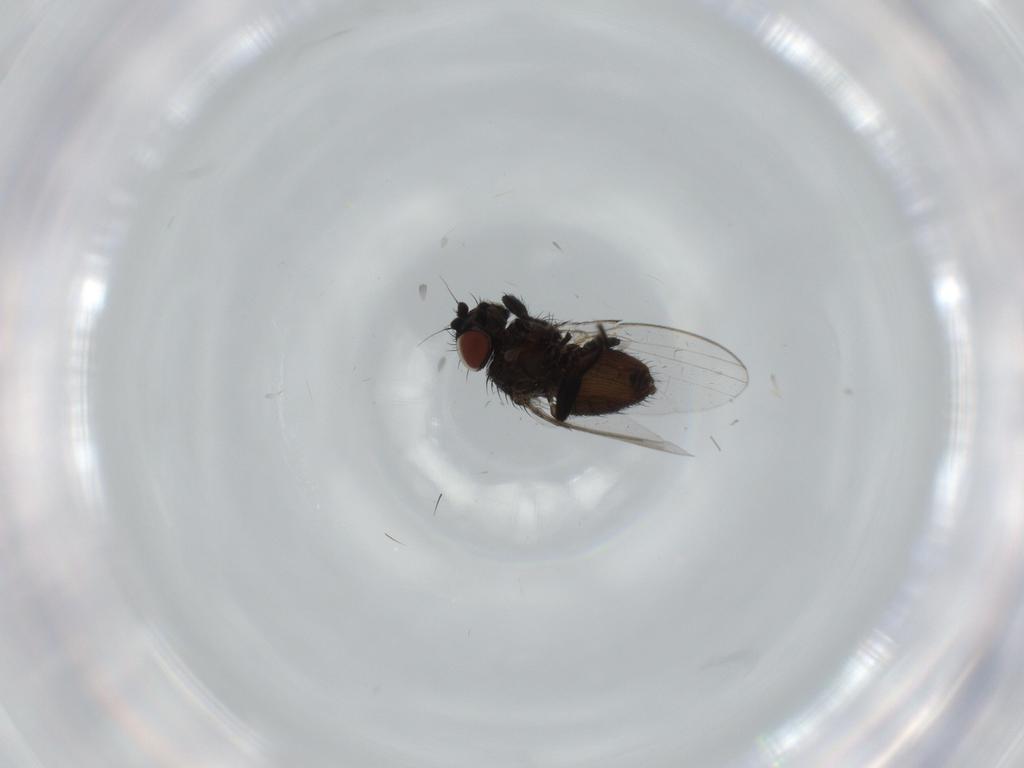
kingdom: Animalia
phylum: Arthropoda
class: Insecta
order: Diptera
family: Milichiidae
